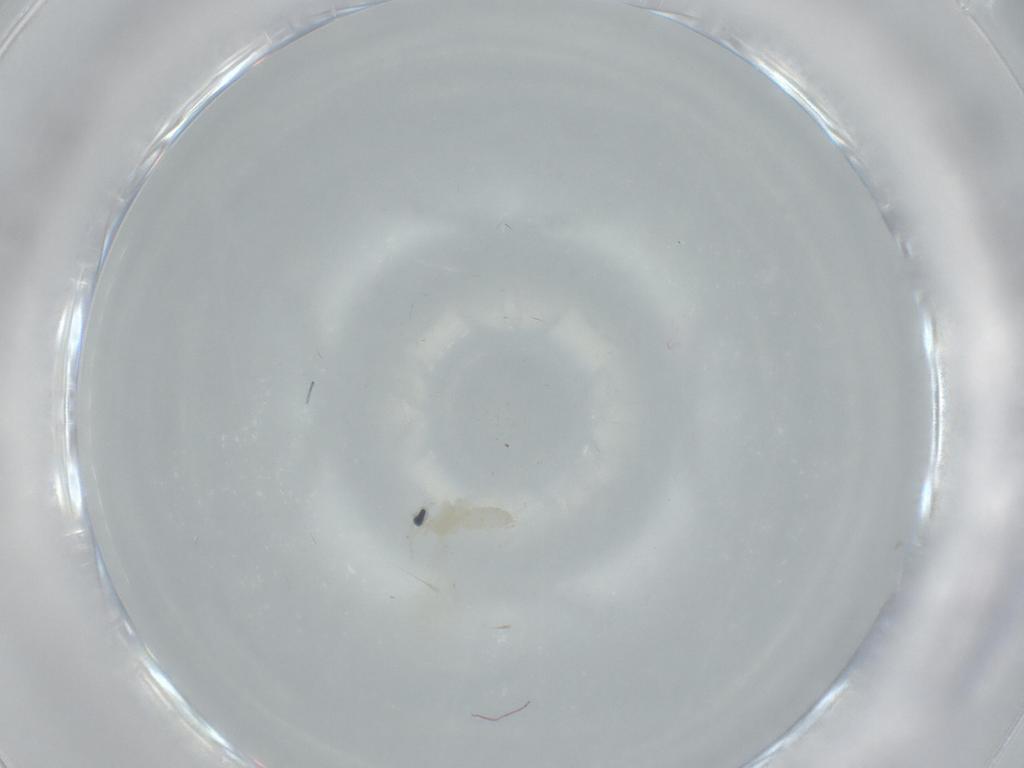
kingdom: Animalia
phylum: Arthropoda
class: Insecta
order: Diptera
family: Cecidomyiidae
